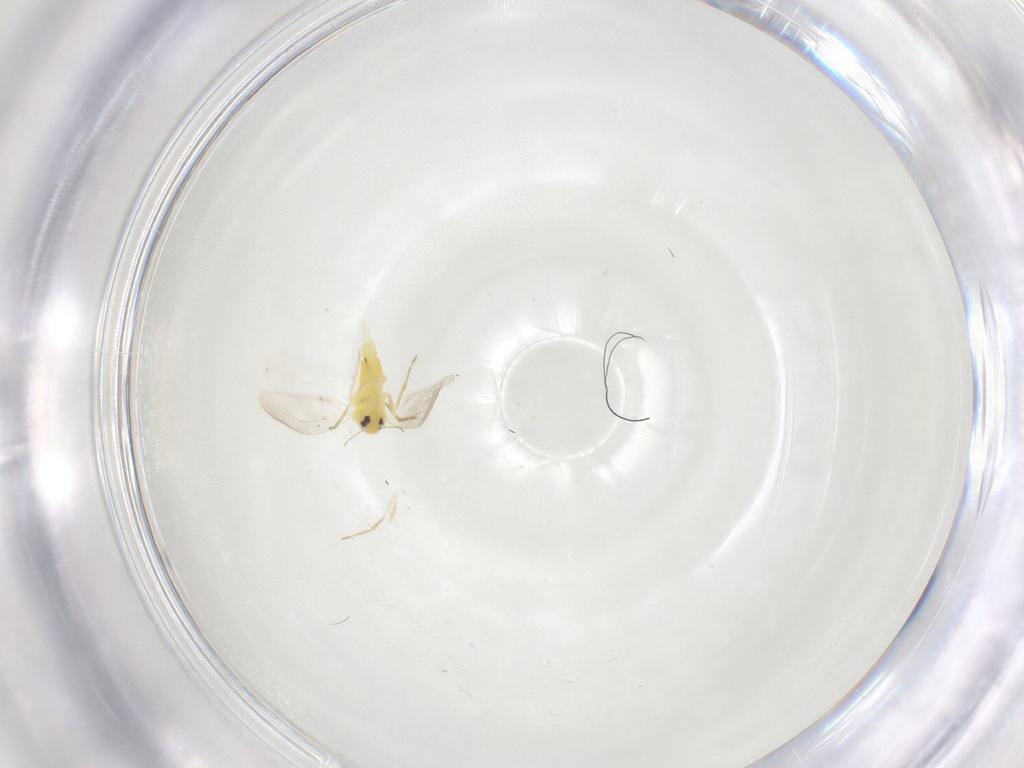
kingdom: Animalia
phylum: Arthropoda
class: Insecta
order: Hemiptera
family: Aleyrodidae
